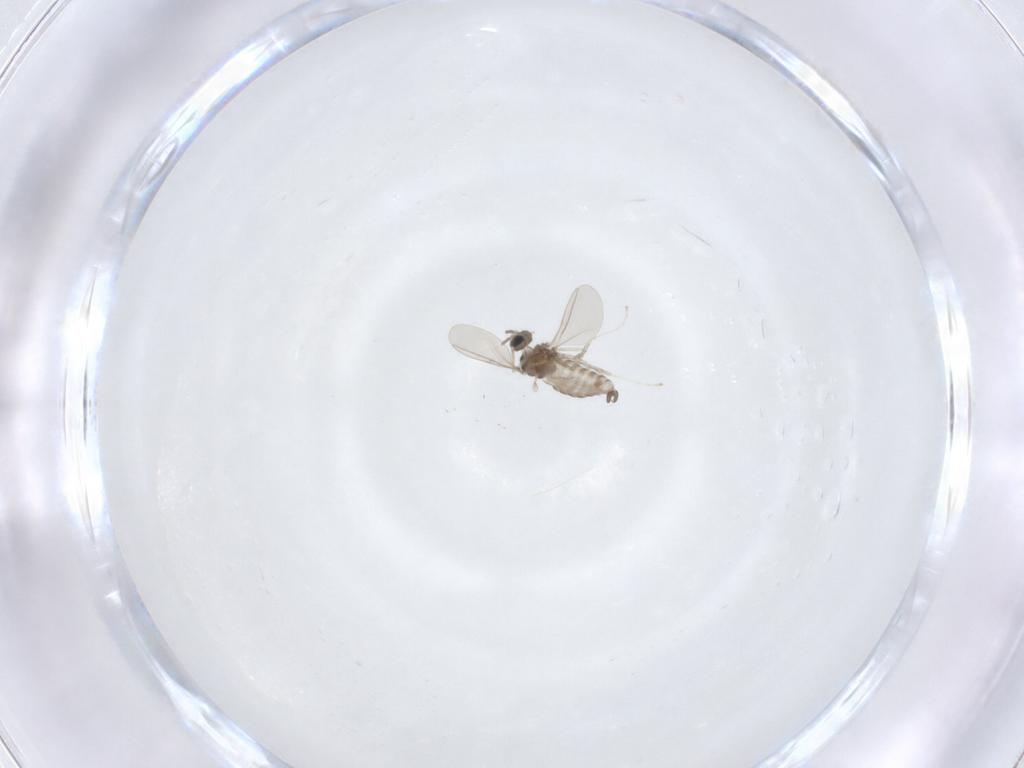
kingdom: Animalia
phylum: Arthropoda
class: Insecta
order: Diptera
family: Cecidomyiidae
